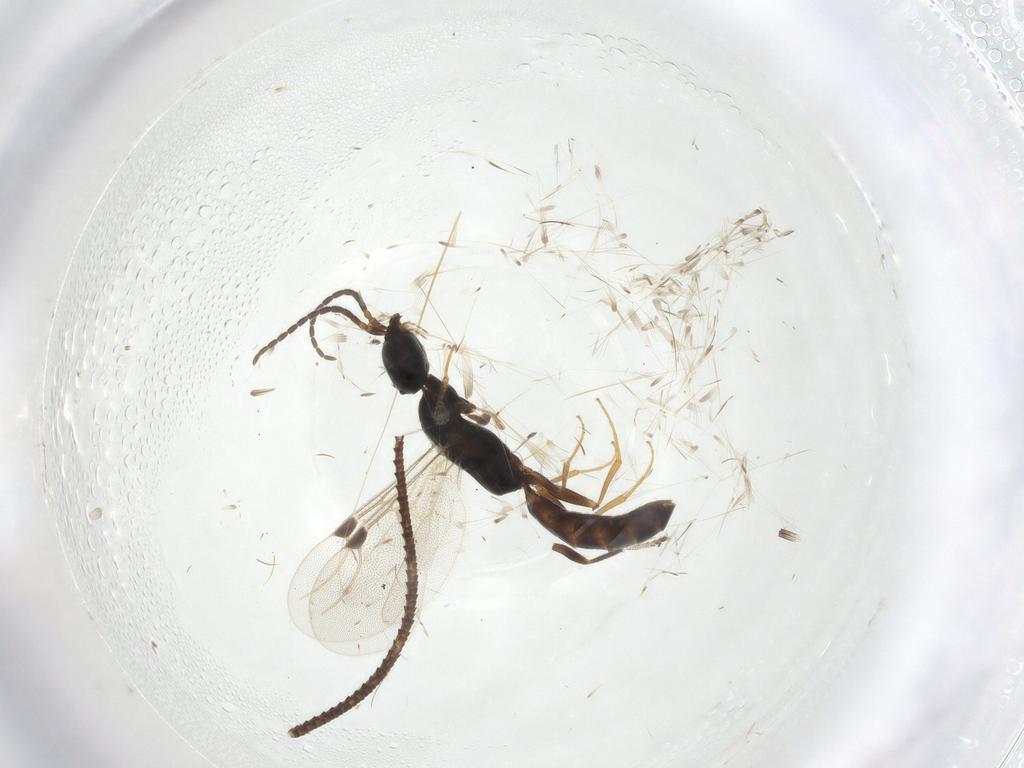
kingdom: Animalia
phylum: Arthropoda
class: Insecta
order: Hymenoptera
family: Bethylidae
